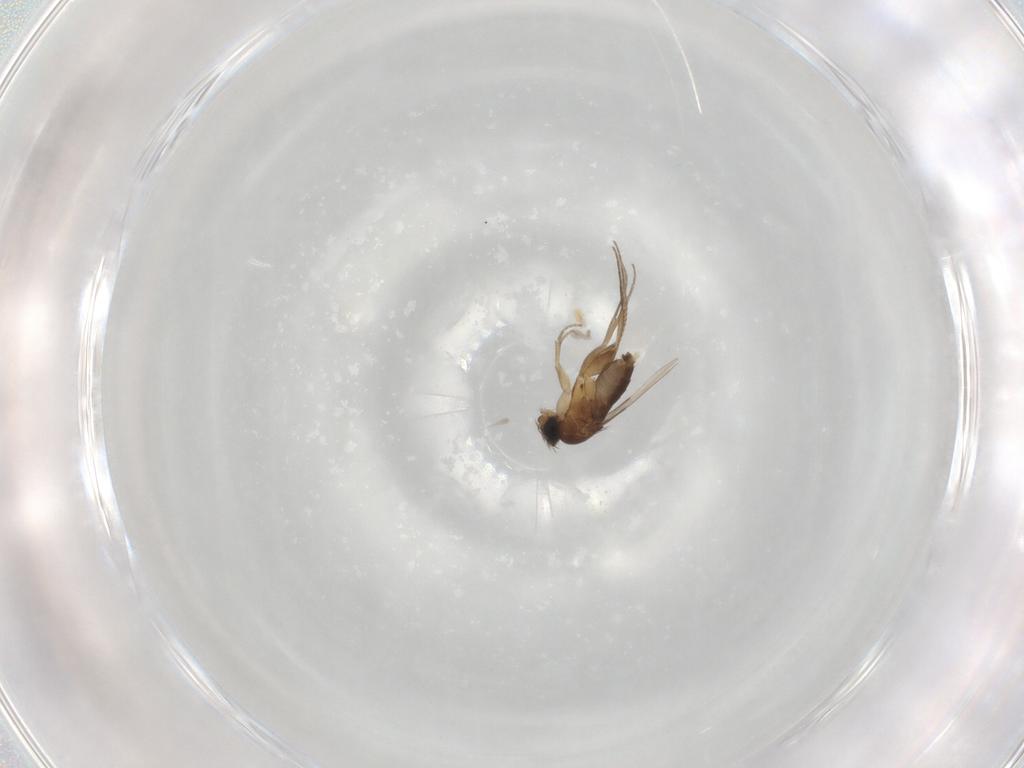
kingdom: Animalia
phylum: Arthropoda
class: Insecta
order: Diptera
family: Phoridae
